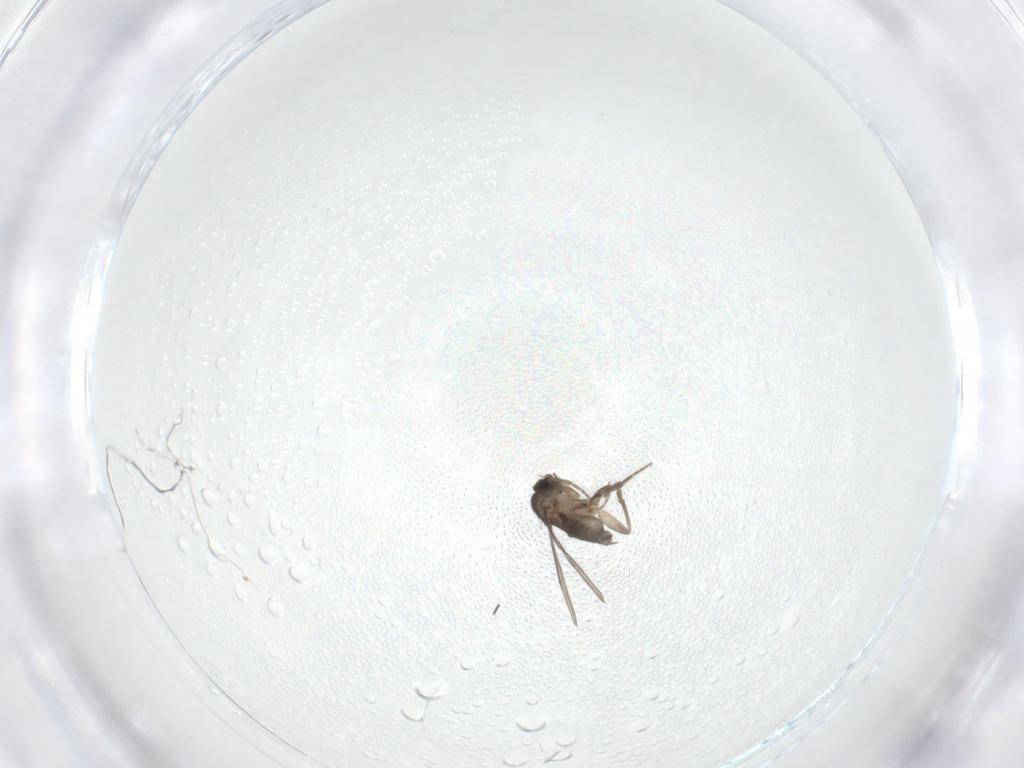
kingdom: Animalia
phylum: Arthropoda
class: Insecta
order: Diptera
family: Phoridae
